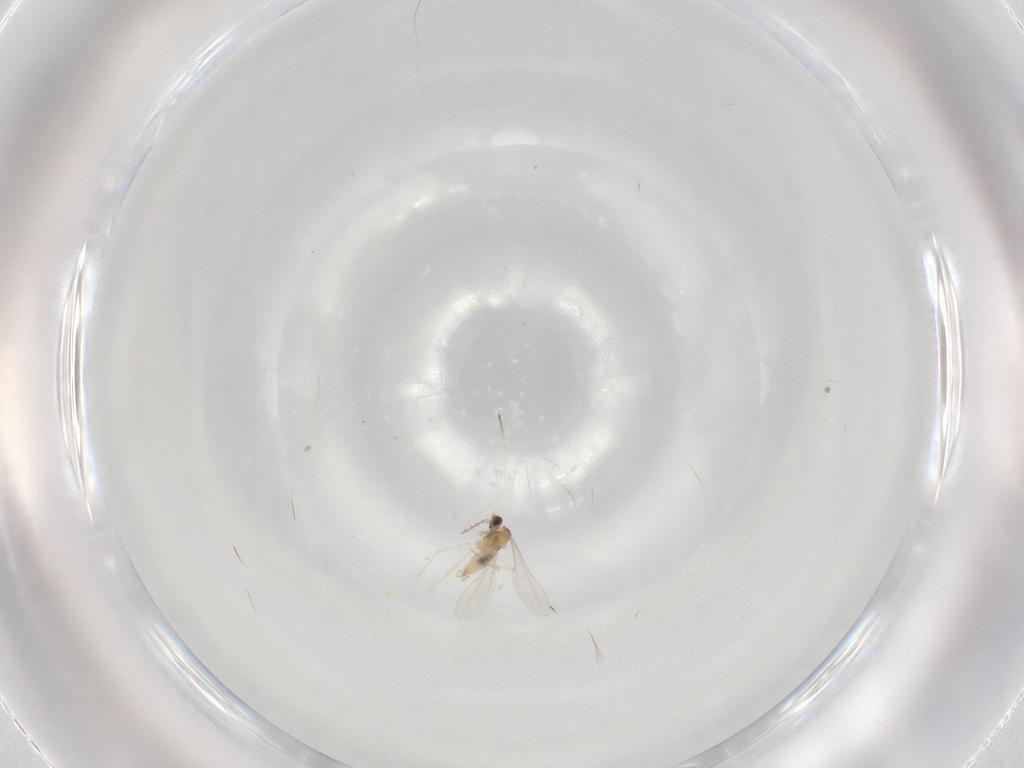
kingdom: Animalia
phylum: Arthropoda
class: Insecta
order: Diptera
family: Cecidomyiidae
